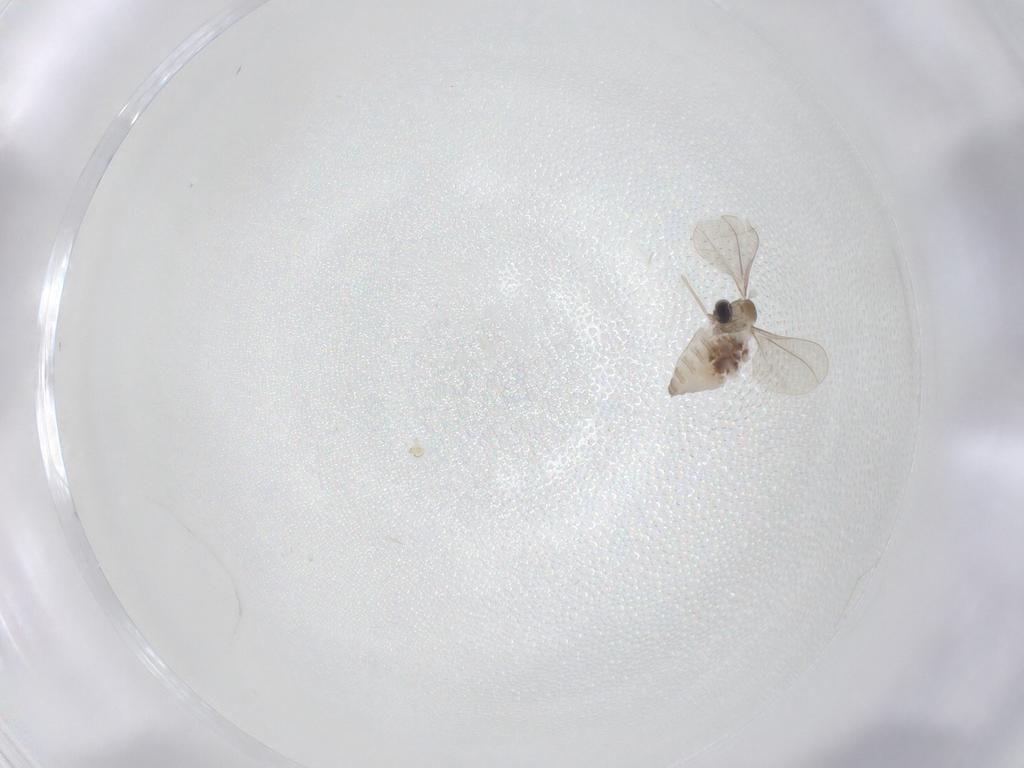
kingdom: Animalia
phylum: Arthropoda
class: Insecta
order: Diptera
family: Cecidomyiidae
